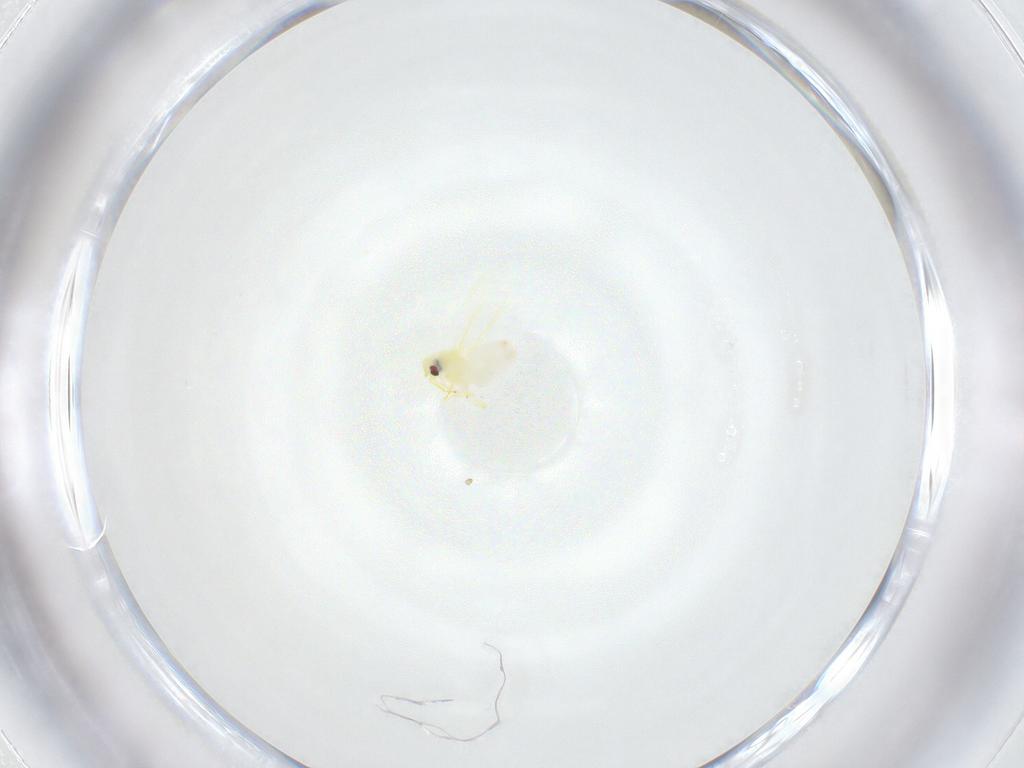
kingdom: Animalia
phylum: Arthropoda
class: Insecta
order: Hemiptera
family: Aleyrodidae
